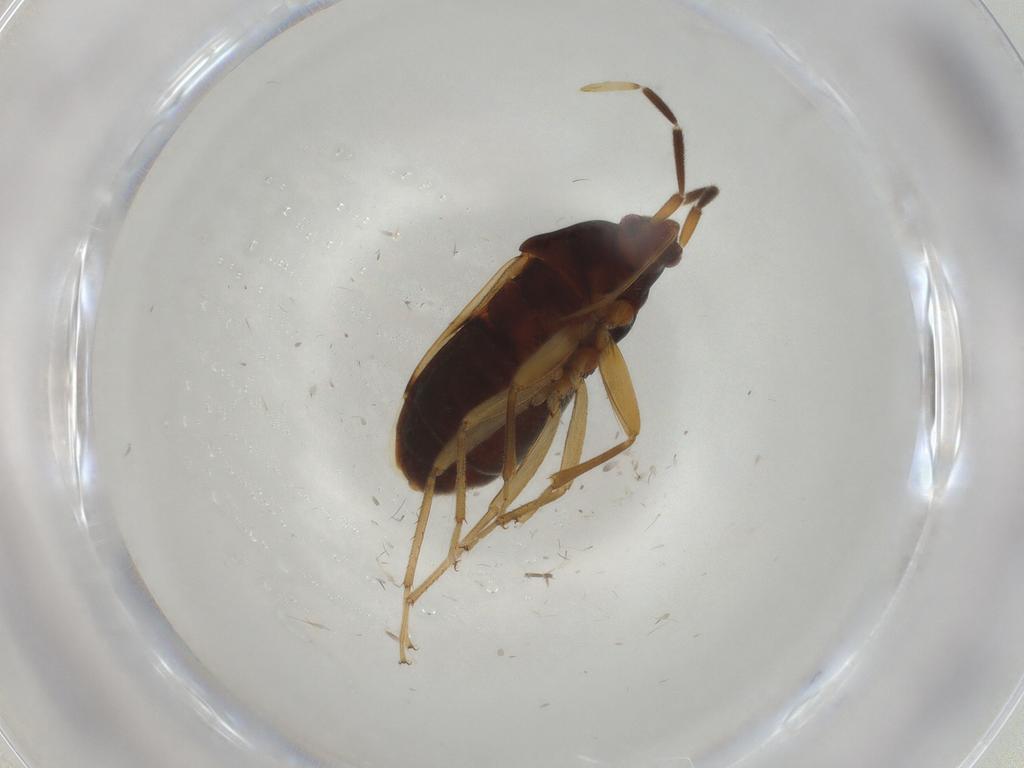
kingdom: Animalia
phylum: Arthropoda
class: Insecta
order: Hemiptera
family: Rhyparochromidae
